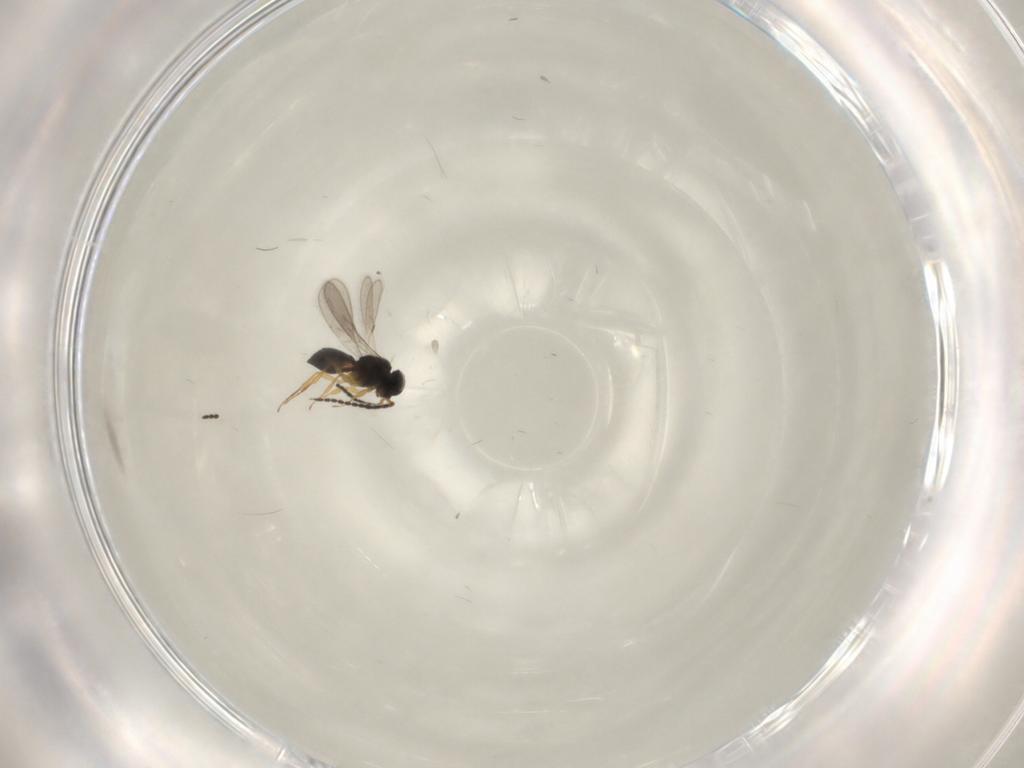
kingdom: Animalia
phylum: Arthropoda
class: Insecta
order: Hymenoptera
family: Scelionidae
